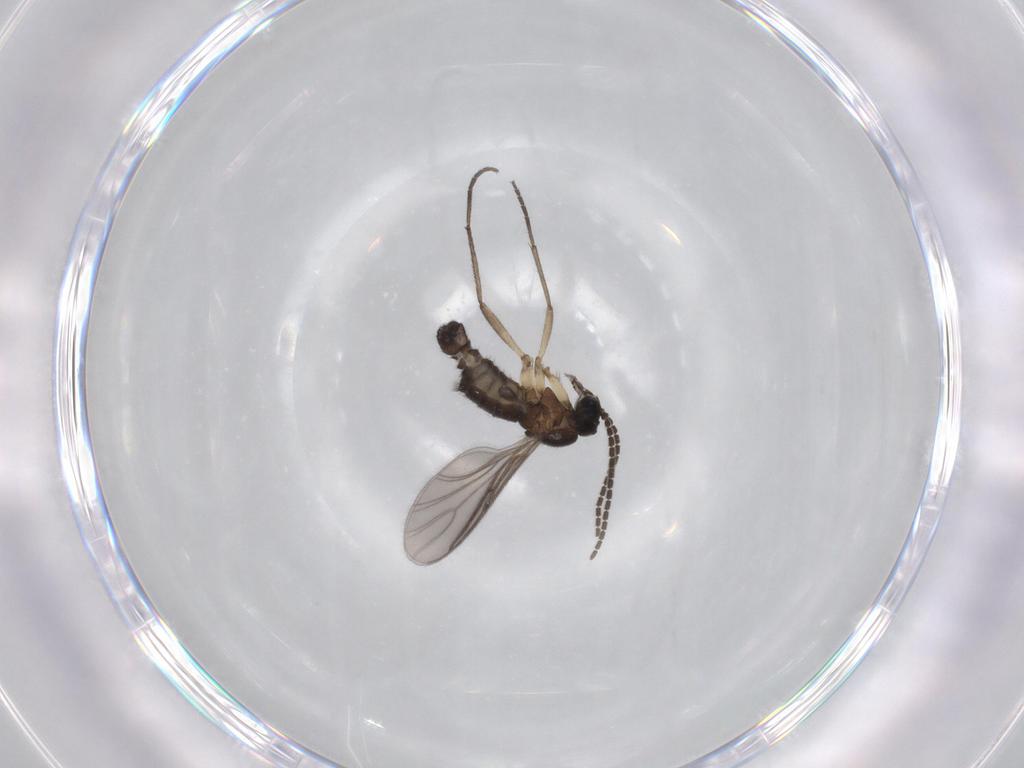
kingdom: Animalia
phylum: Arthropoda
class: Insecta
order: Diptera
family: Sciaridae
